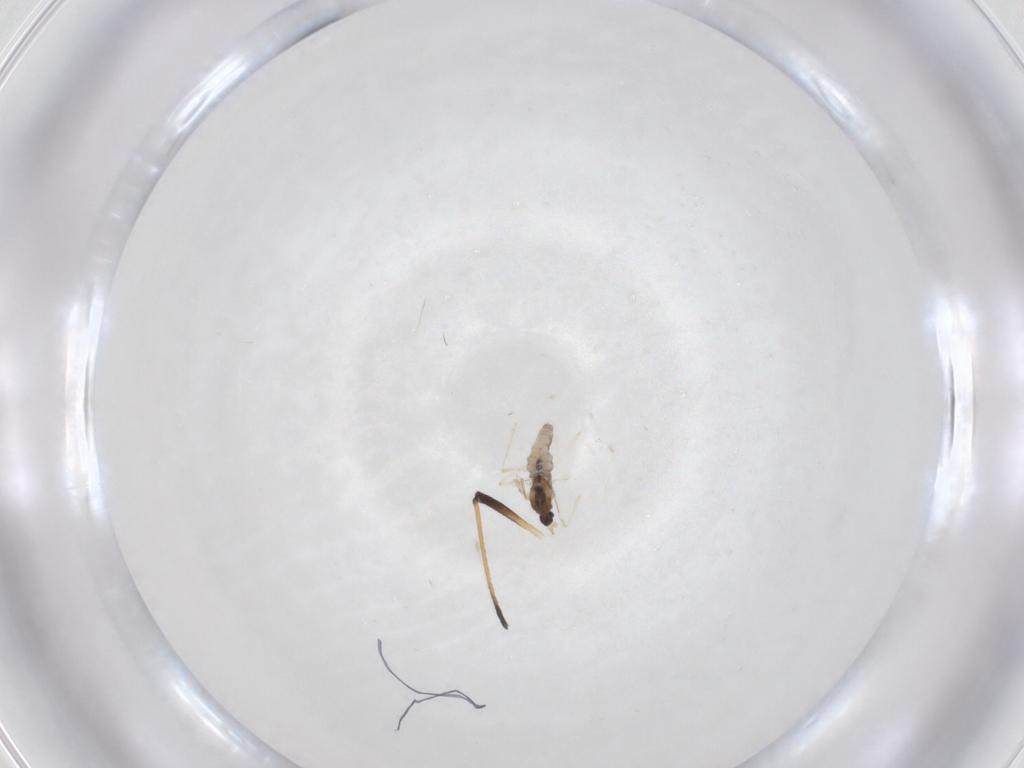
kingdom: Animalia
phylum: Arthropoda
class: Insecta
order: Diptera
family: Cecidomyiidae
